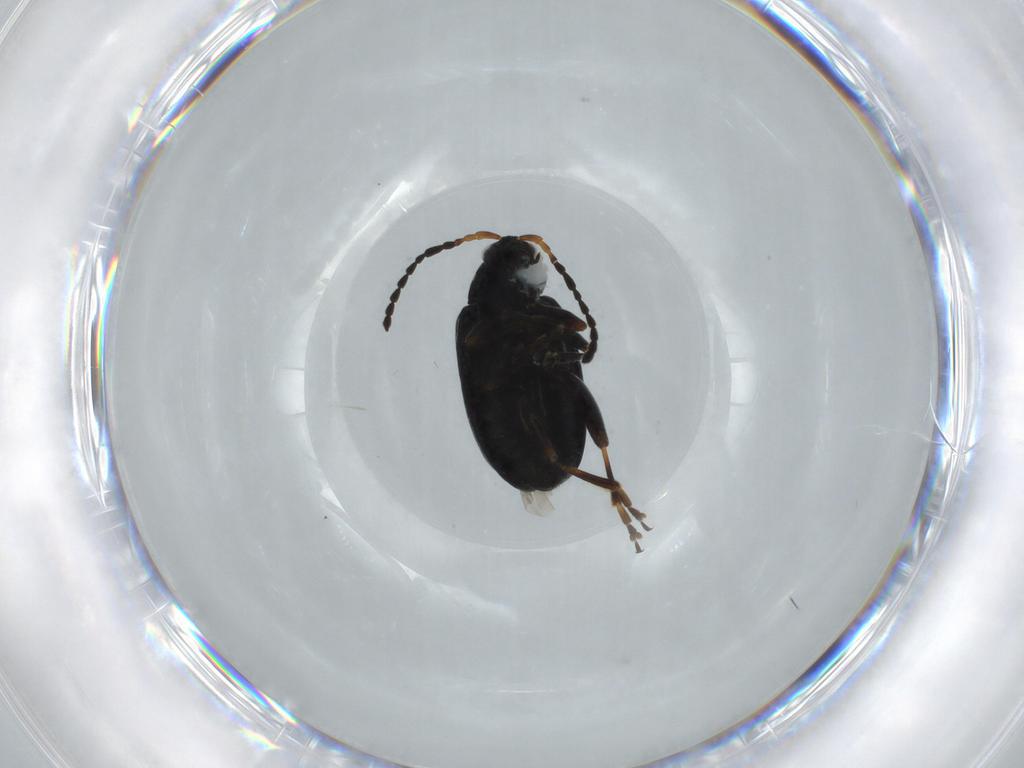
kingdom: Animalia
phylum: Arthropoda
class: Insecta
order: Coleoptera
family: Chrysomelidae
